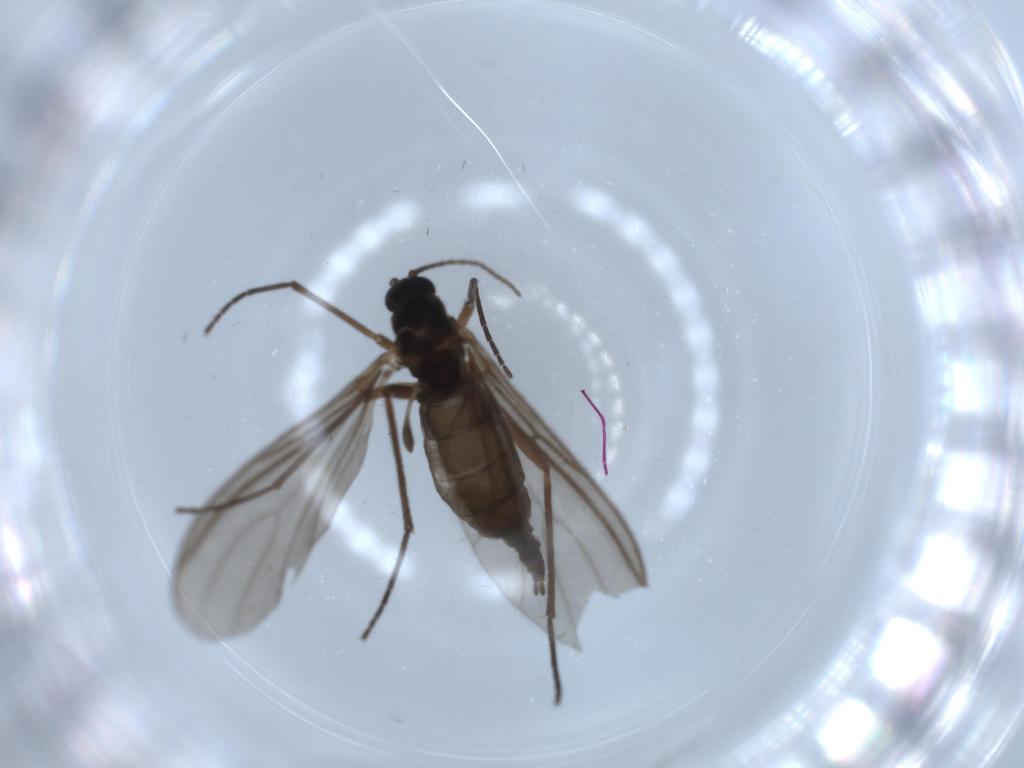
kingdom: Animalia
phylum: Arthropoda
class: Insecta
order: Diptera
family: Sciaridae
